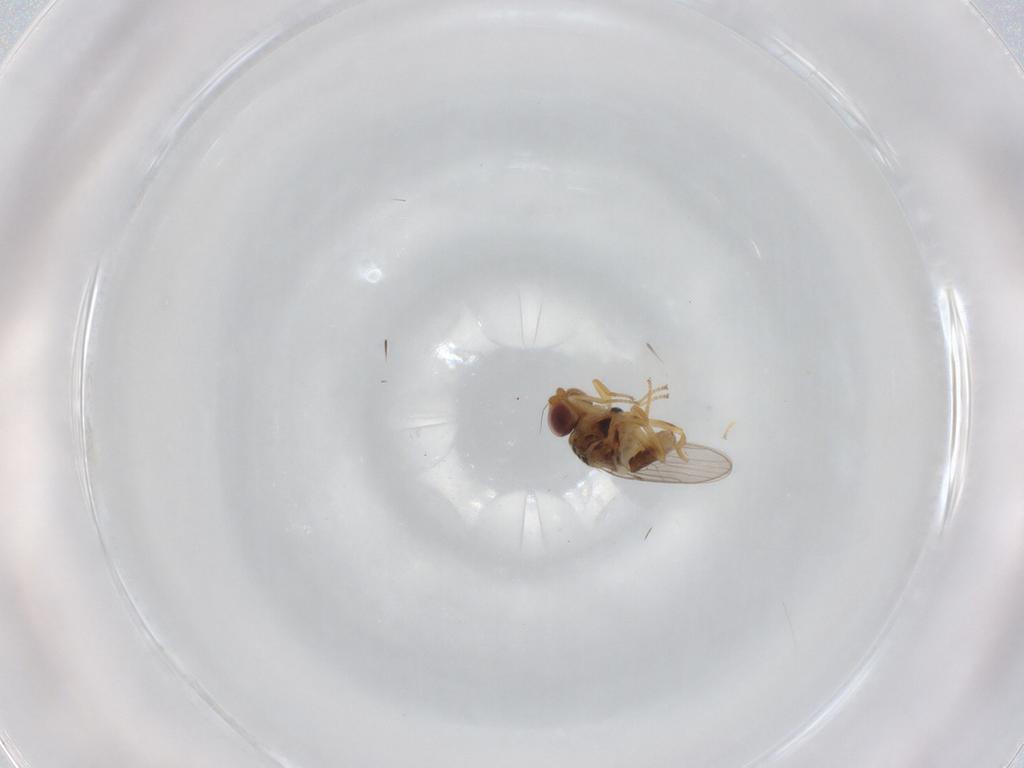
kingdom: Animalia
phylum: Arthropoda
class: Insecta
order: Diptera
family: Chloropidae
